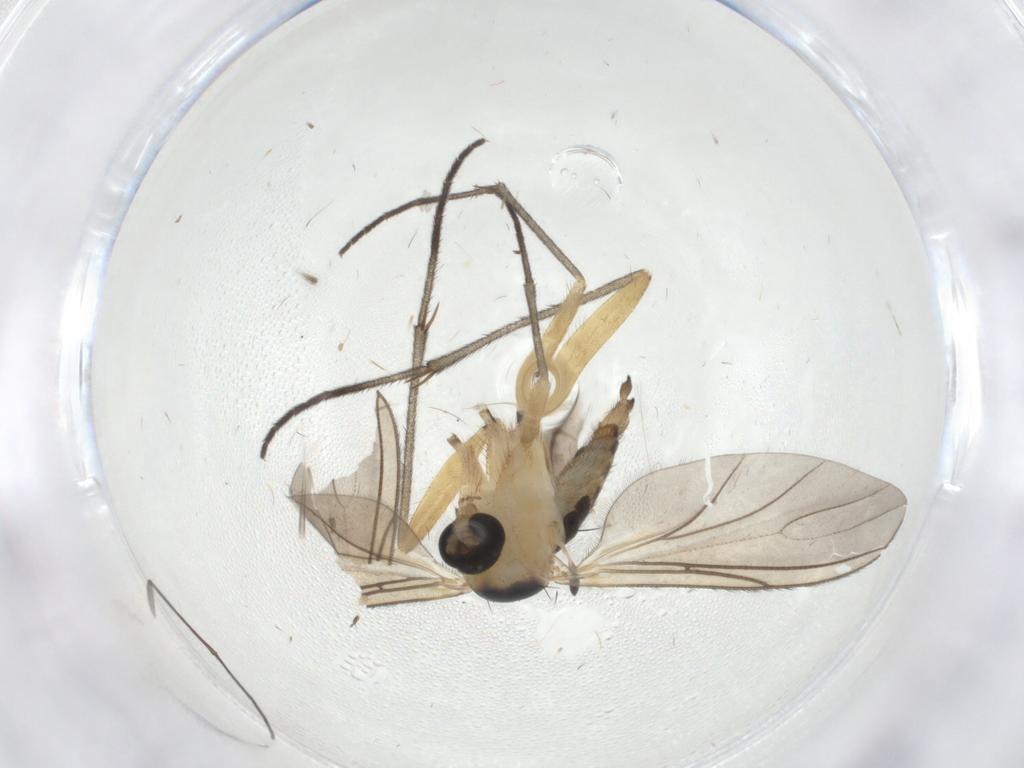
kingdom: Animalia
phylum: Arthropoda
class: Insecta
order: Diptera
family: Sciaridae
